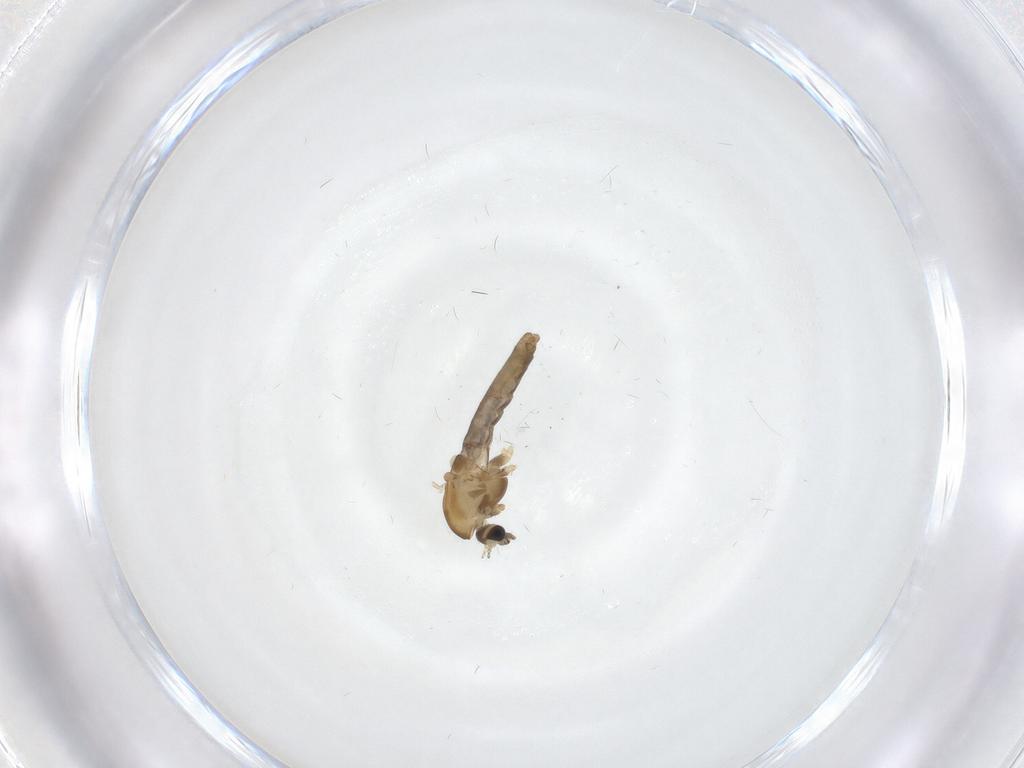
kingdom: Animalia
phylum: Arthropoda
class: Insecta
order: Diptera
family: Chironomidae
